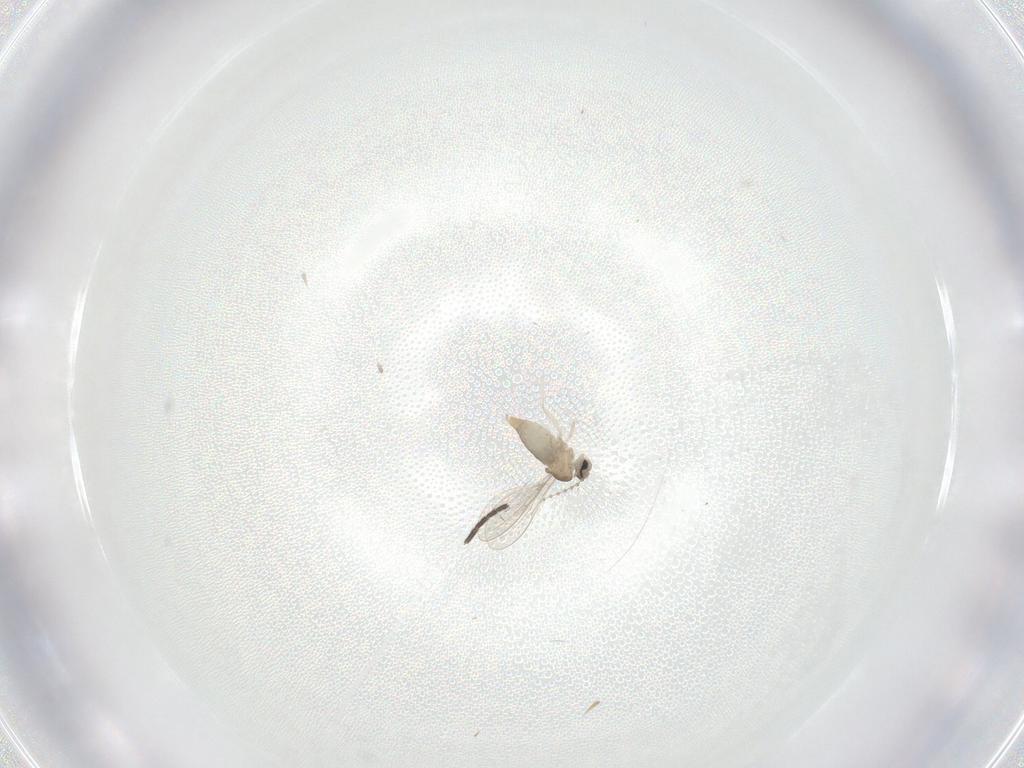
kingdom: Animalia
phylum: Arthropoda
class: Insecta
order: Diptera
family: Sciaridae
